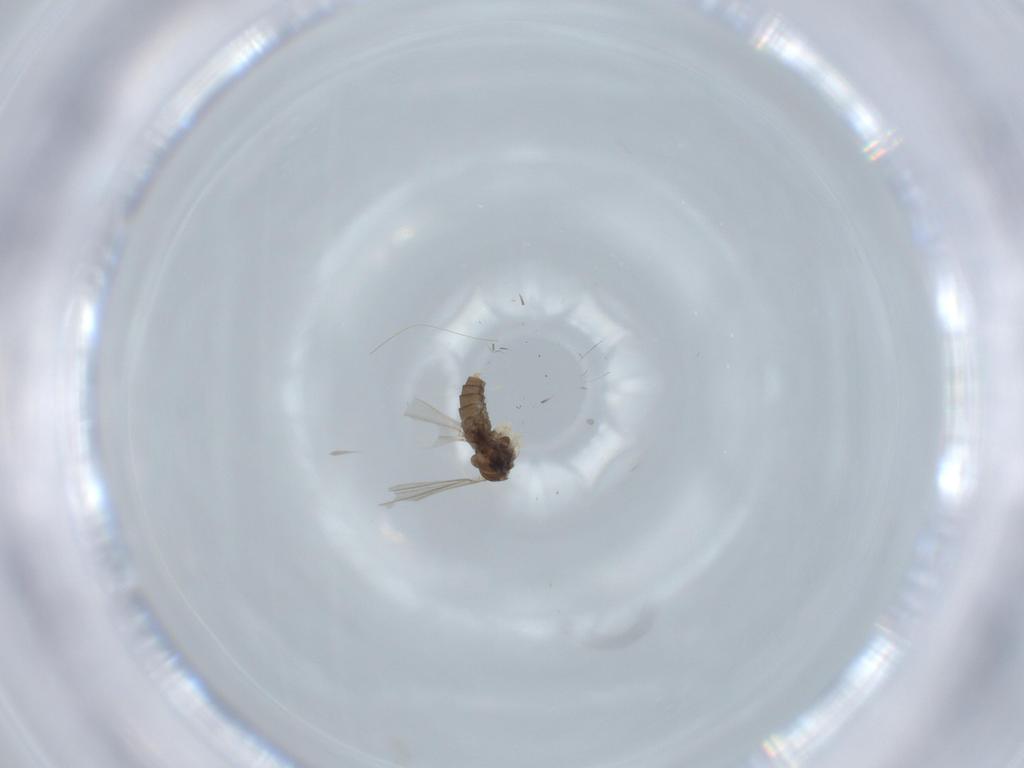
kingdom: Animalia
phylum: Arthropoda
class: Insecta
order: Diptera
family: Cecidomyiidae
